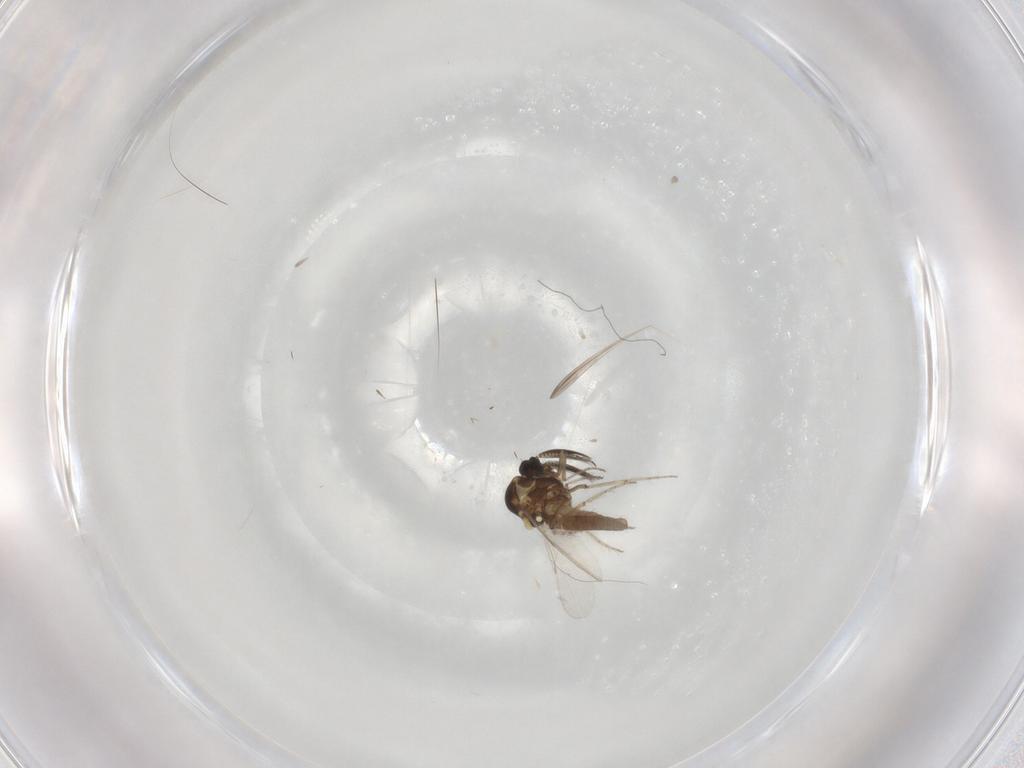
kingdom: Animalia
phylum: Arthropoda
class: Insecta
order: Diptera
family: Ceratopogonidae
